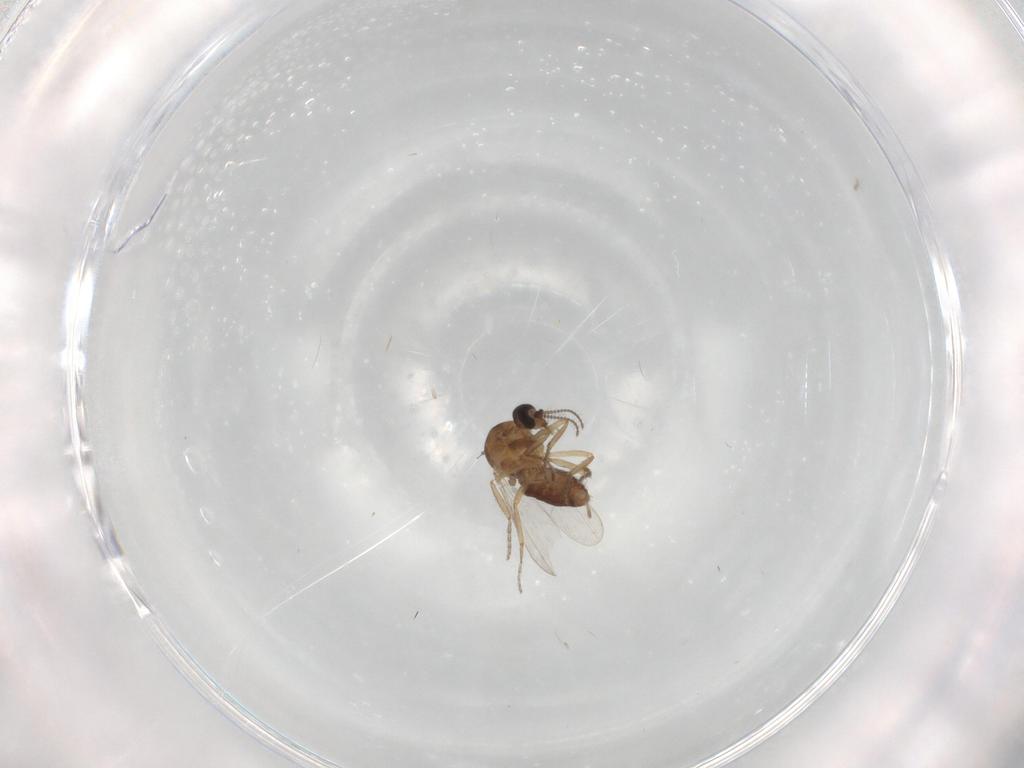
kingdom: Animalia
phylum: Arthropoda
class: Insecta
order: Diptera
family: Ceratopogonidae
